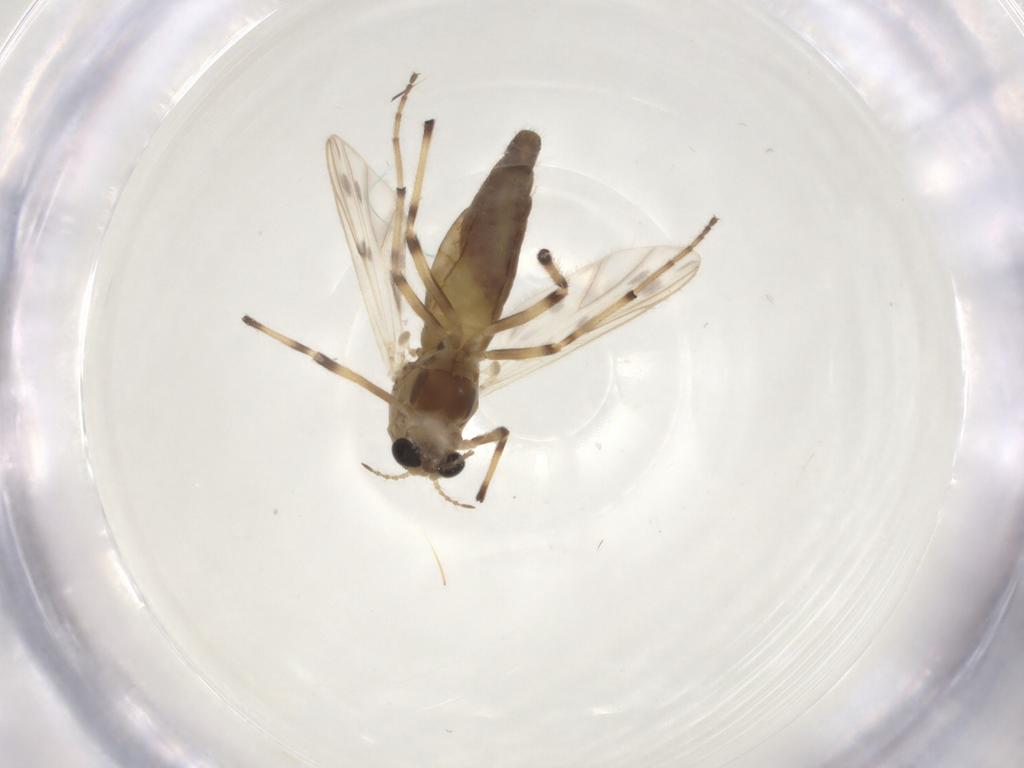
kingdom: Animalia
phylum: Arthropoda
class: Insecta
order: Diptera
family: Chironomidae
